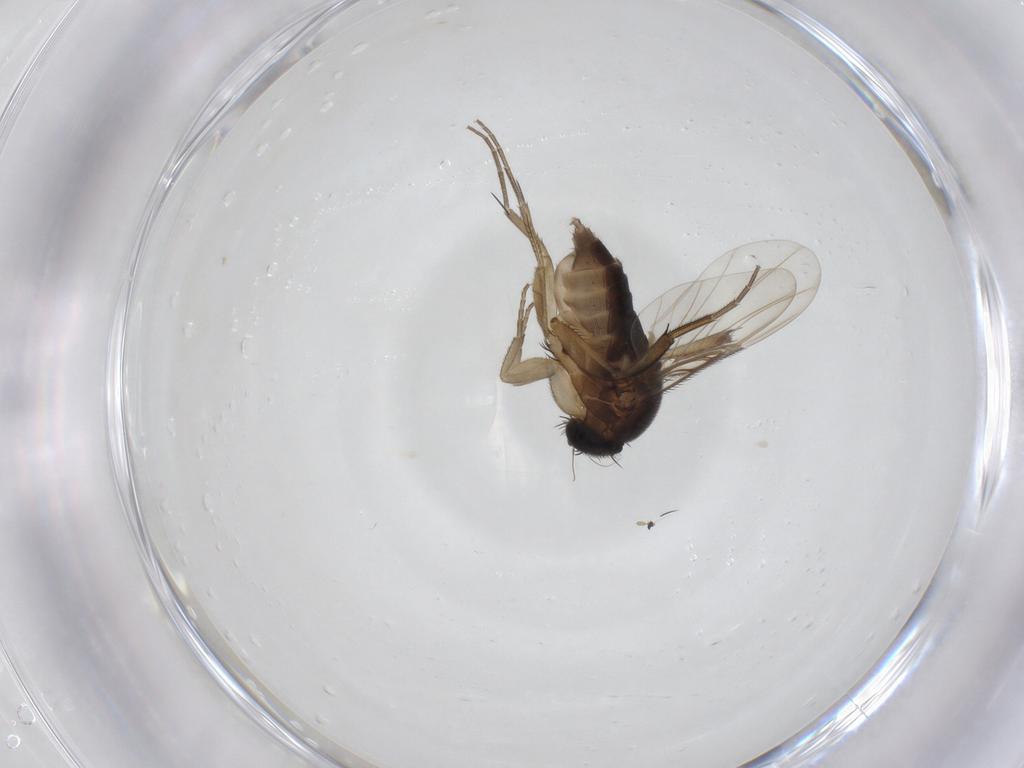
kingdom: Animalia
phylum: Arthropoda
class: Insecta
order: Diptera
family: Phoridae
